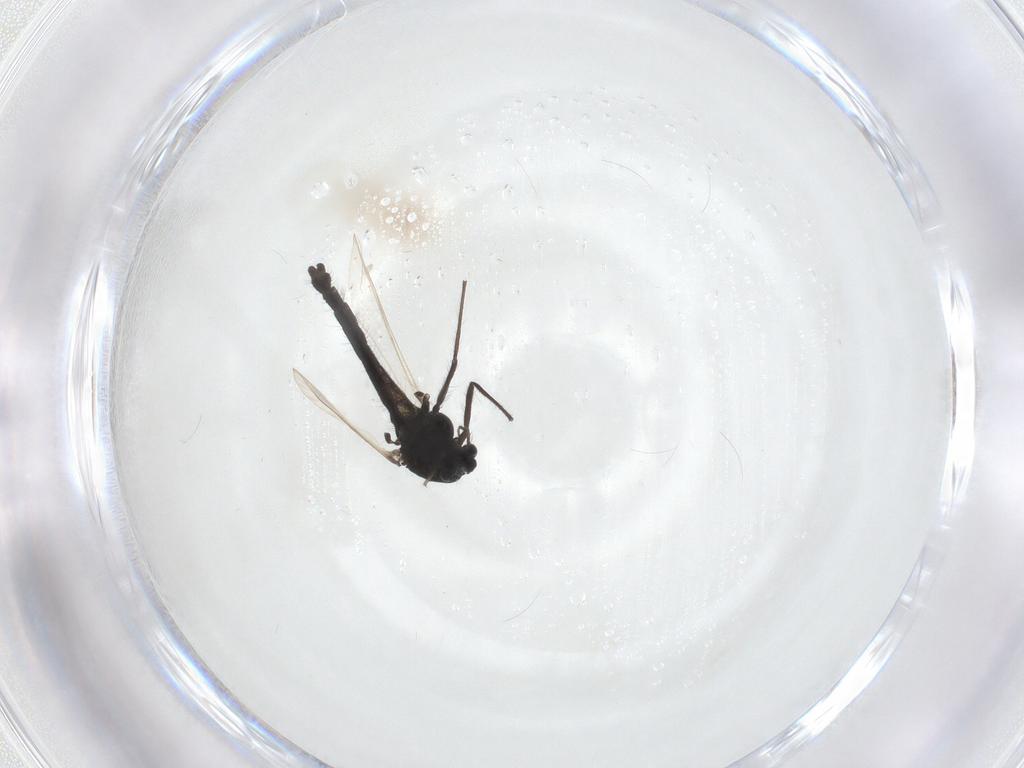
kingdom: Animalia
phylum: Arthropoda
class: Insecta
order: Diptera
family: Chironomidae
